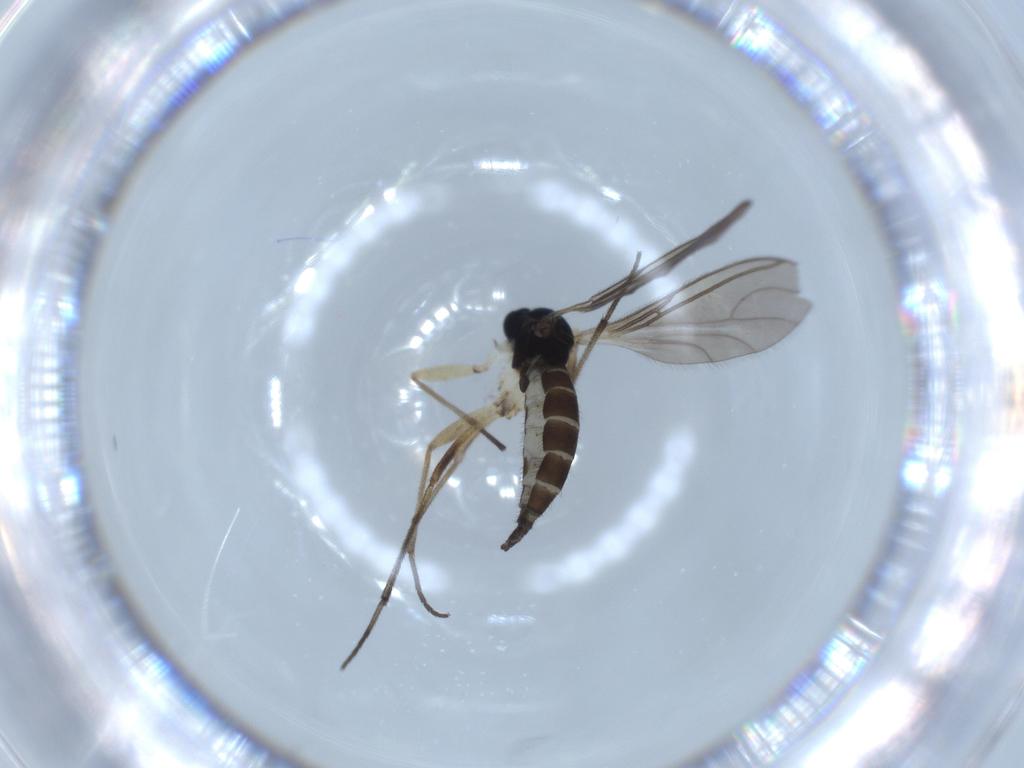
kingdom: Animalia
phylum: Arthropoda
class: Insecta
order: Diptera
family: Sciaridae
